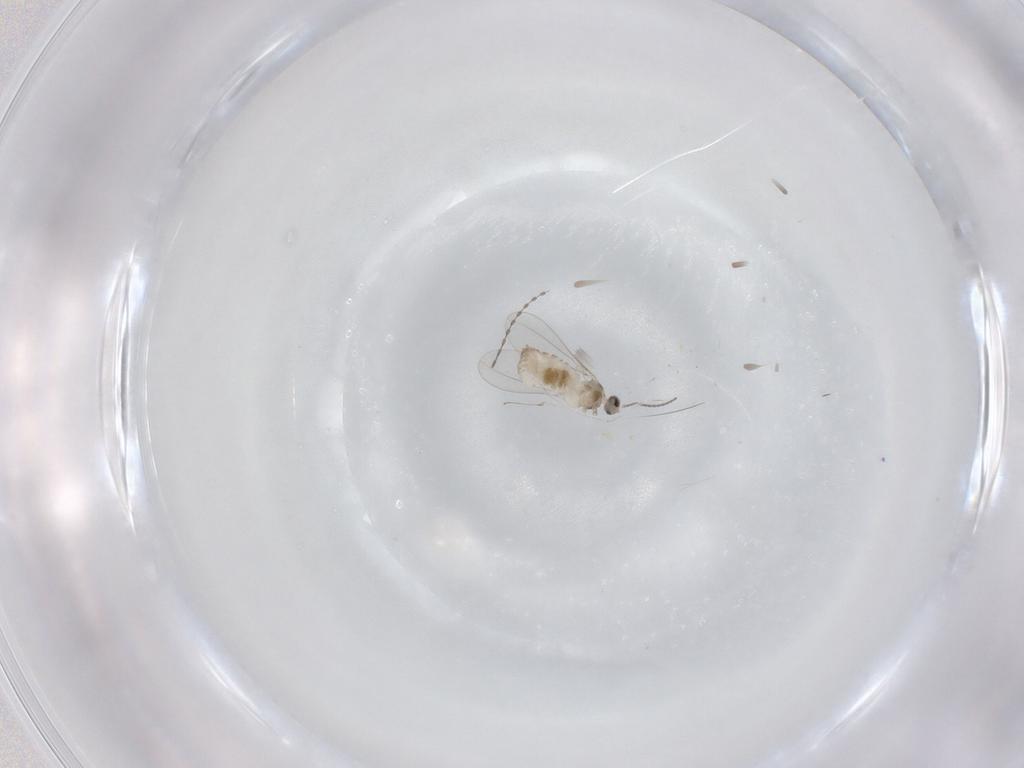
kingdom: Animalia
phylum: Arthropoda
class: Insecta
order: Diptera
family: Cecidomyiidae
